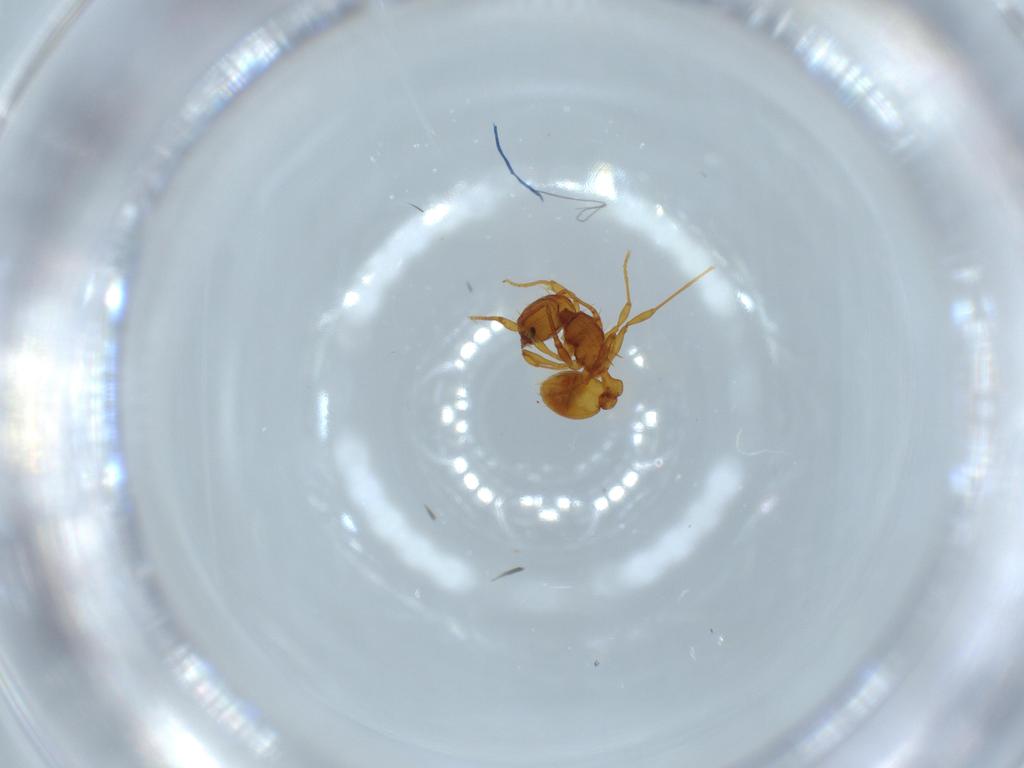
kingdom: Animalia
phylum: Arthropoda
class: Insecta
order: Hymenoptera
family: Formicidae
